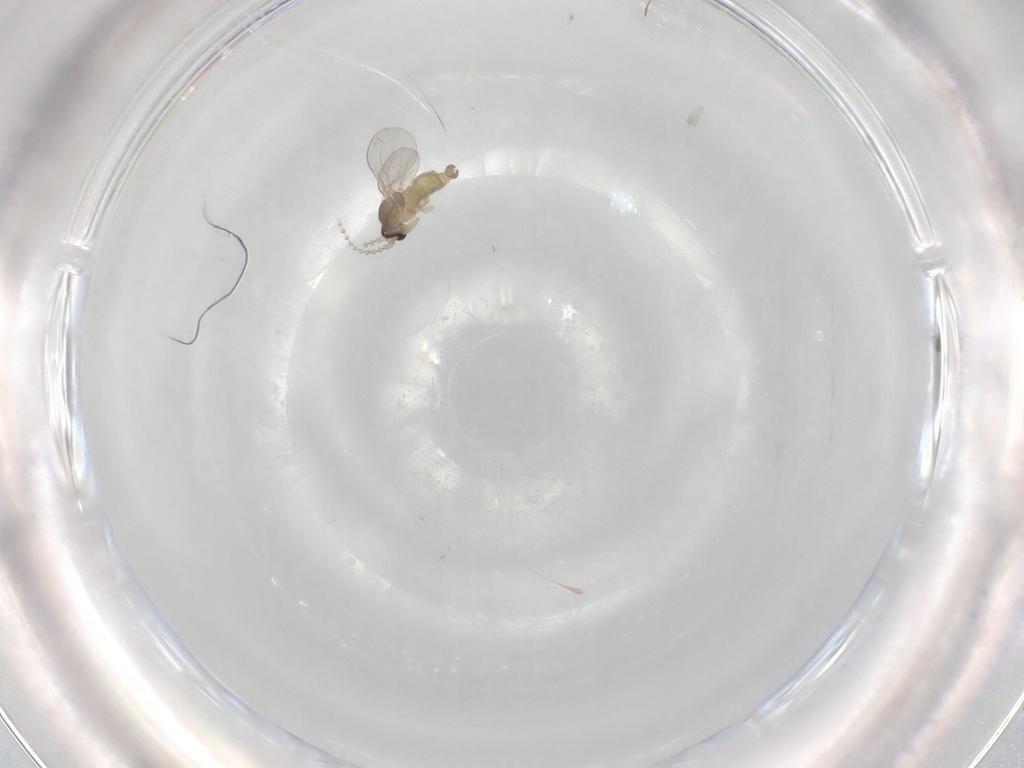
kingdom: Animalia
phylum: Arthropoda
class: Insecta
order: Diptera
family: Cecidomyiidae
